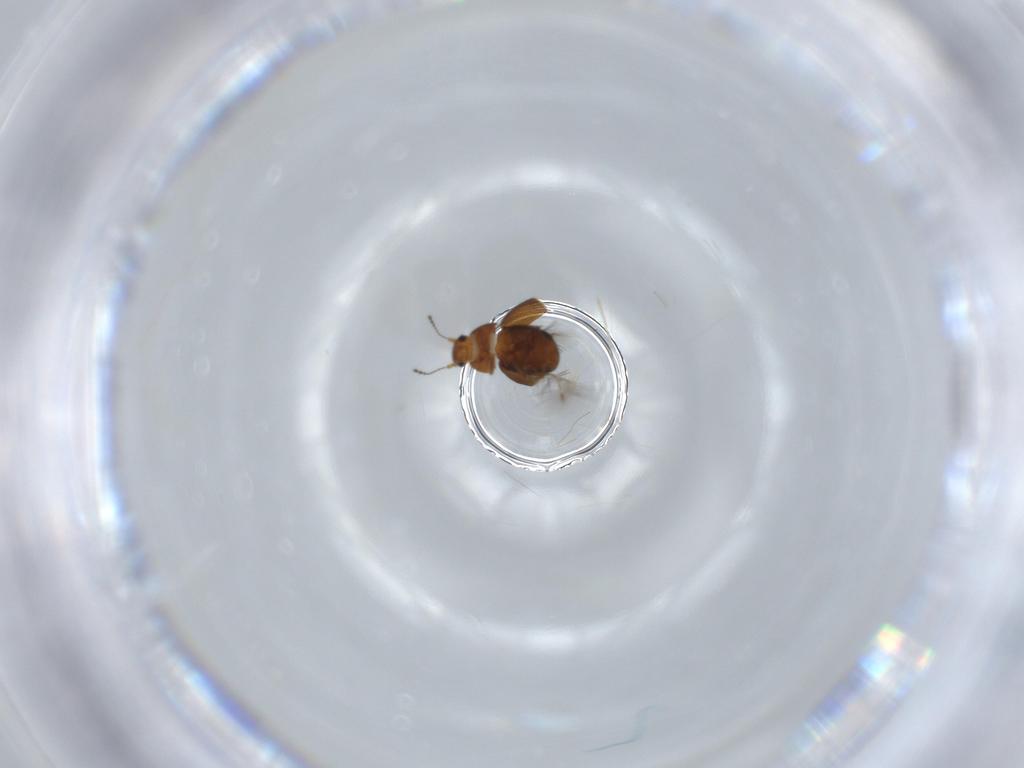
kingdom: Animalia
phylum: Arthropoda
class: Insecta
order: Coleoptera
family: Ptiliidae
